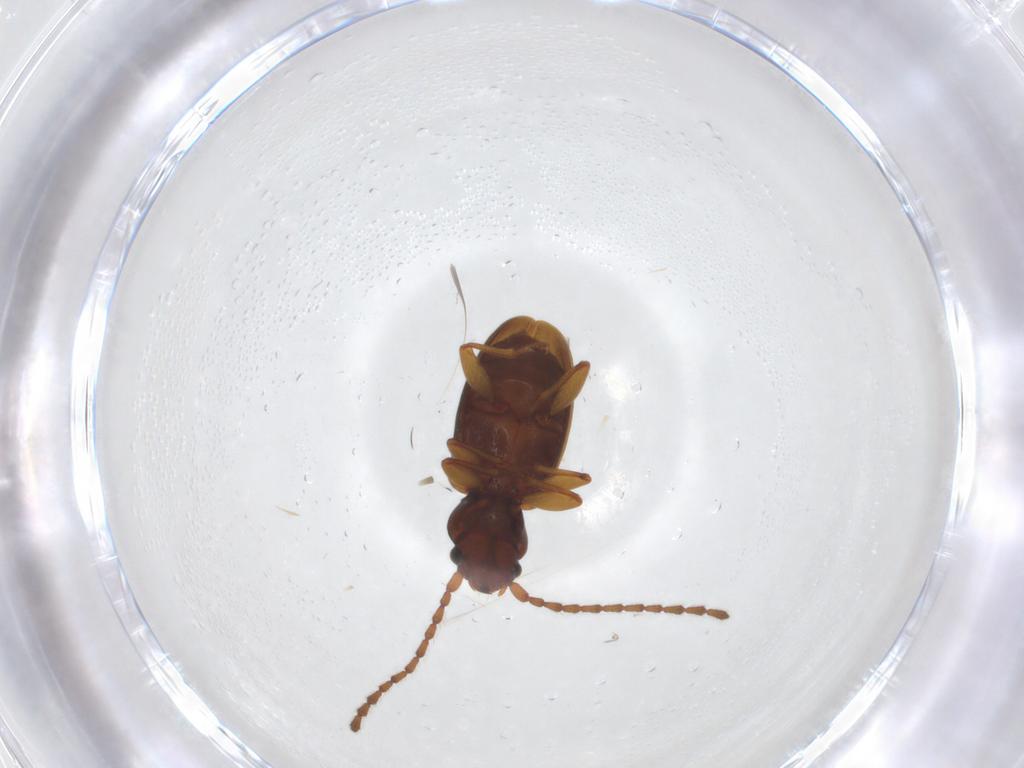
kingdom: Animalia
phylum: Arthropoda
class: Insecta
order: Coleoptera
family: Laemophloeidae
